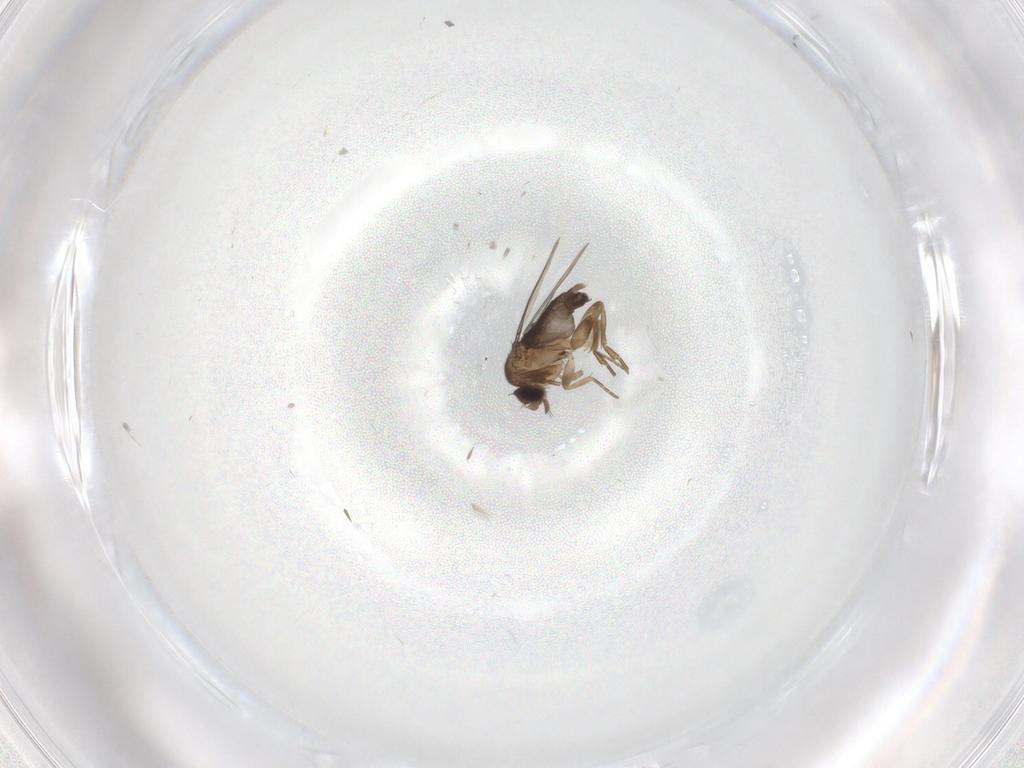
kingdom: Animalia
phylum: Arthropoda
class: Insecta
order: Diptera
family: Phoridae
